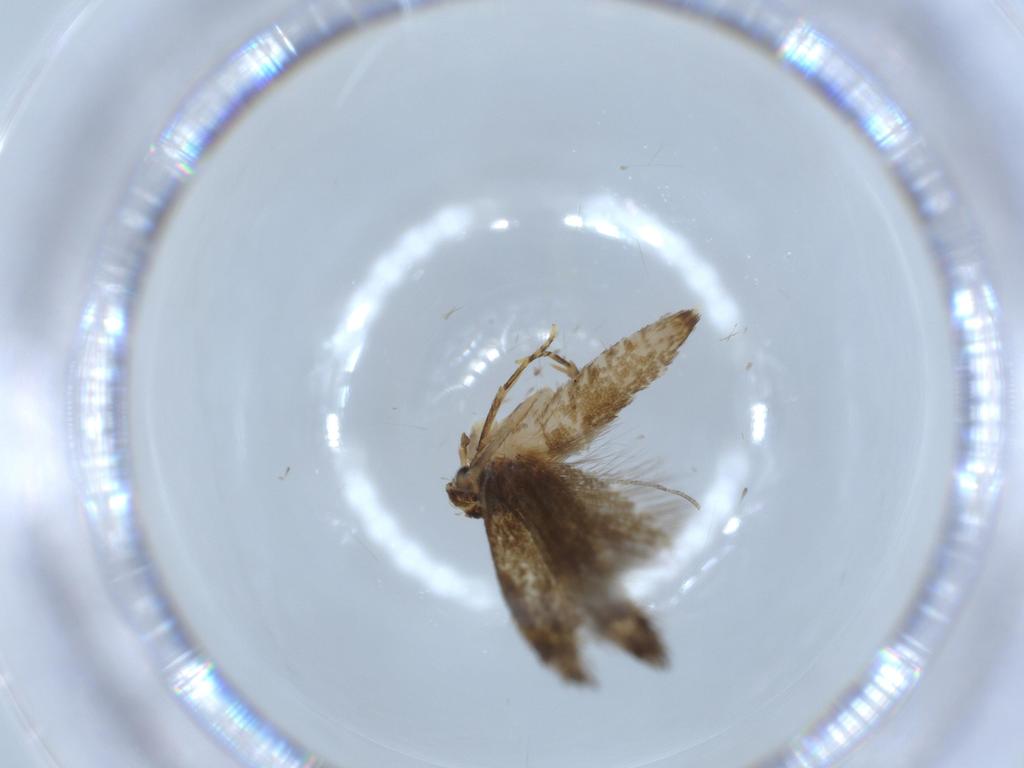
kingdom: Animalia
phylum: Arthropoda
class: Insecta
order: Lepidoptera
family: Tineidae
